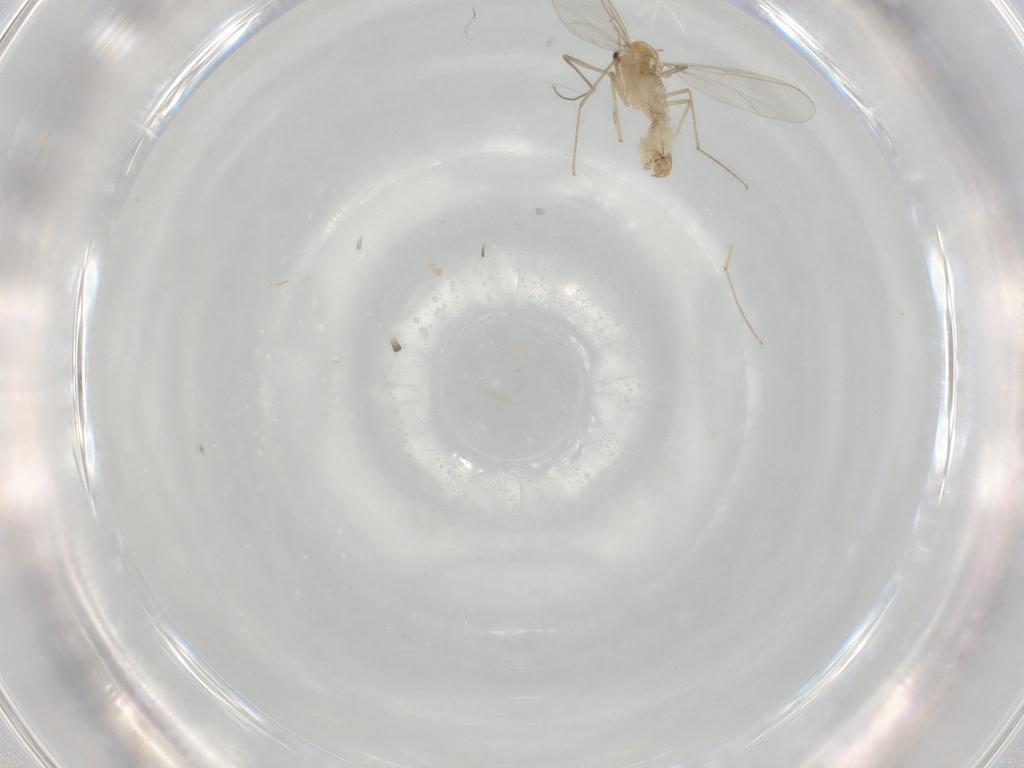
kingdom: Animalia
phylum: Arthropoda
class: Insecta
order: Diptera
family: Chironomidae
